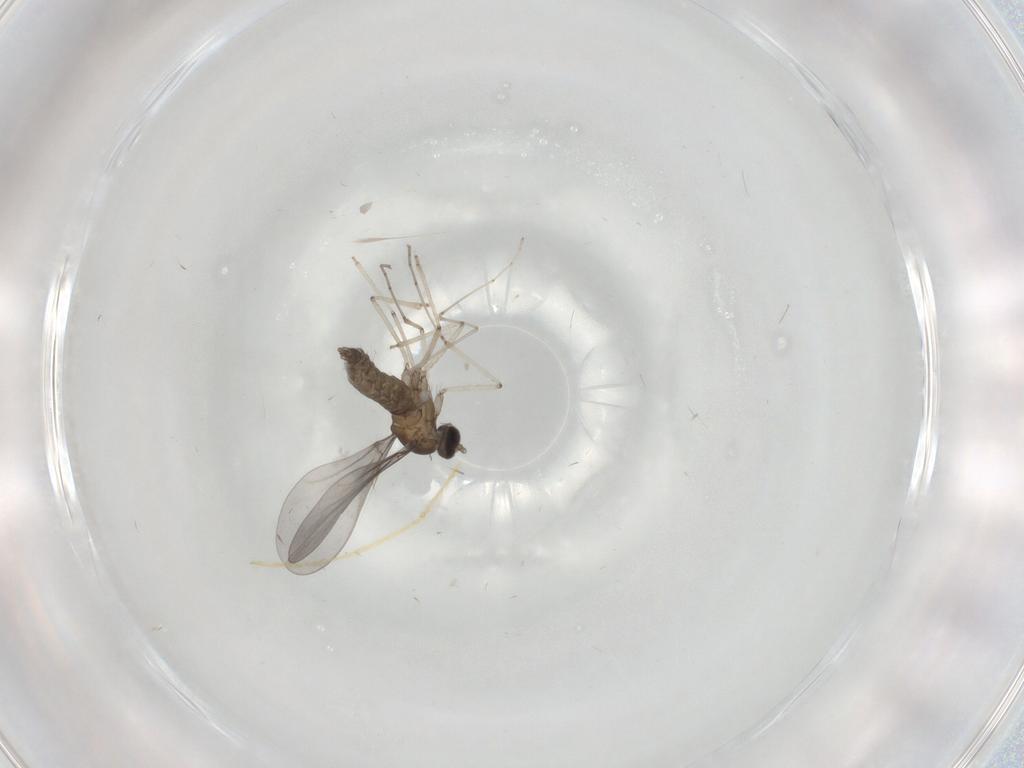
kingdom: Animalia
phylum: Arthropoda
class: Insecta
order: Diptera
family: Cecidomyiidae
